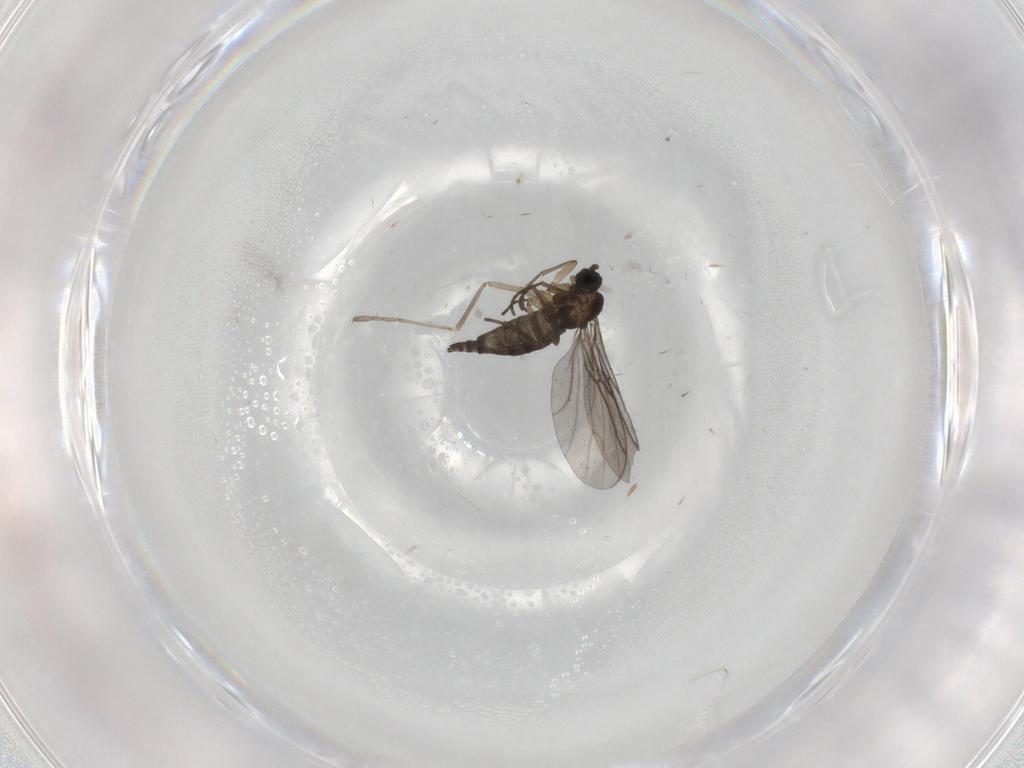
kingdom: Animalia
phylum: Arthropoda
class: Insecta
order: Diptera
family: Sciaridae
